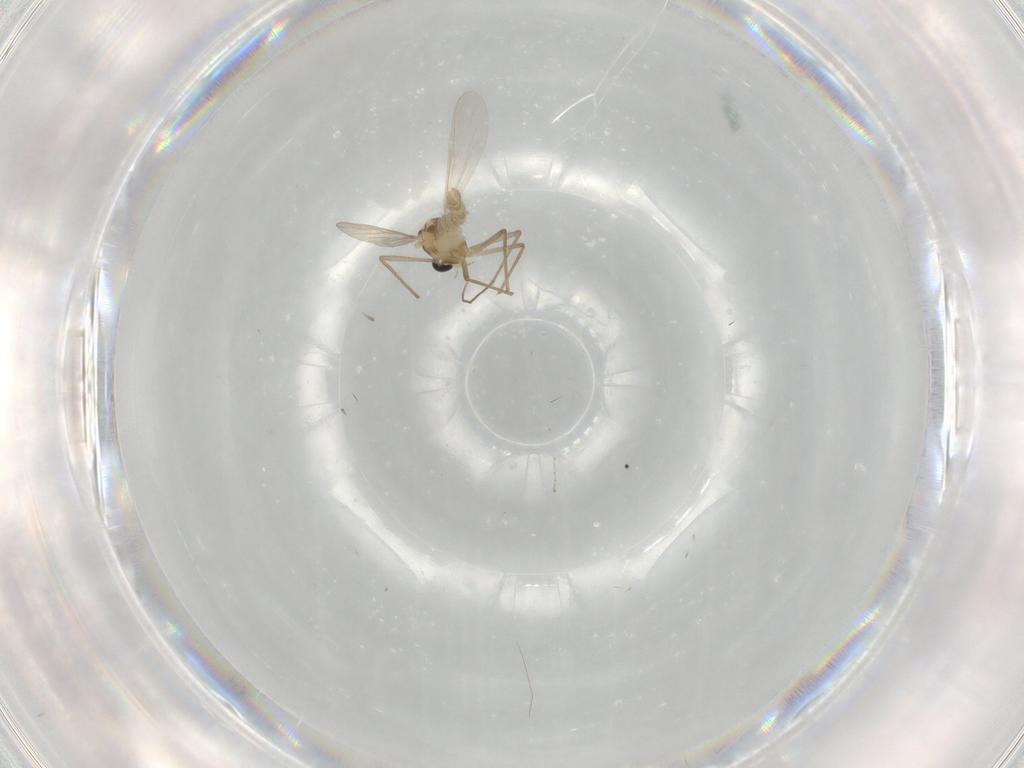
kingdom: Animalia
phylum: Arthropoda
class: Insecta
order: Diptera
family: Cecidomyiidae
